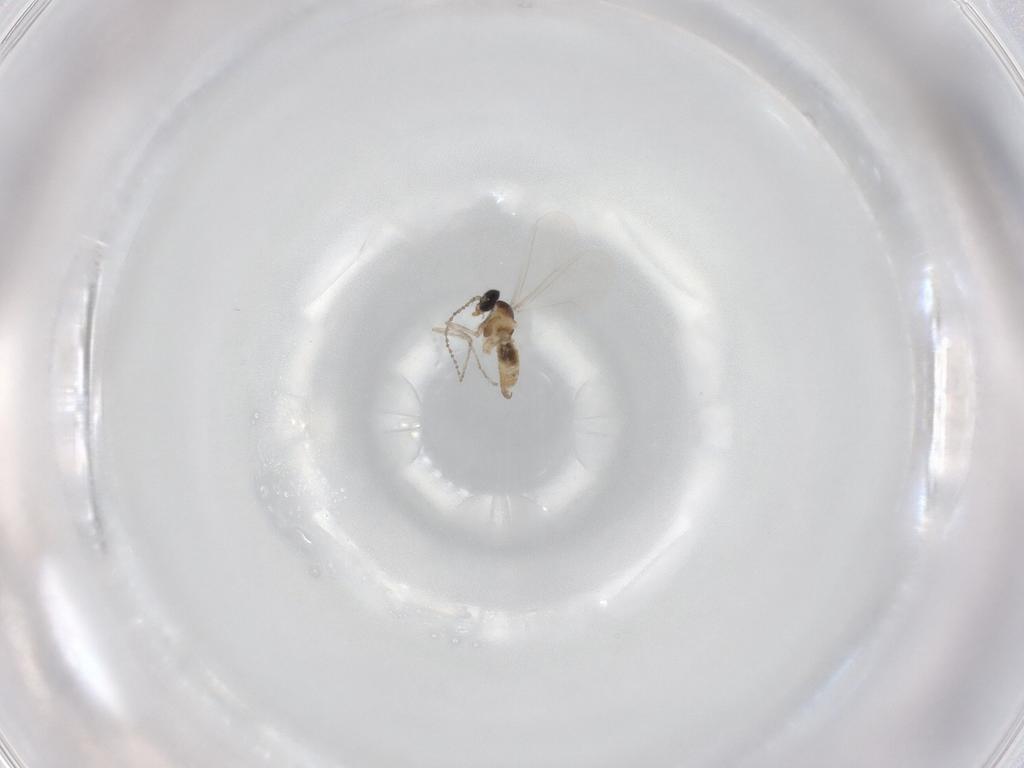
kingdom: Animalia
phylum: Arthropoda
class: Insecta
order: Diptera
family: Cecidomyiidae
